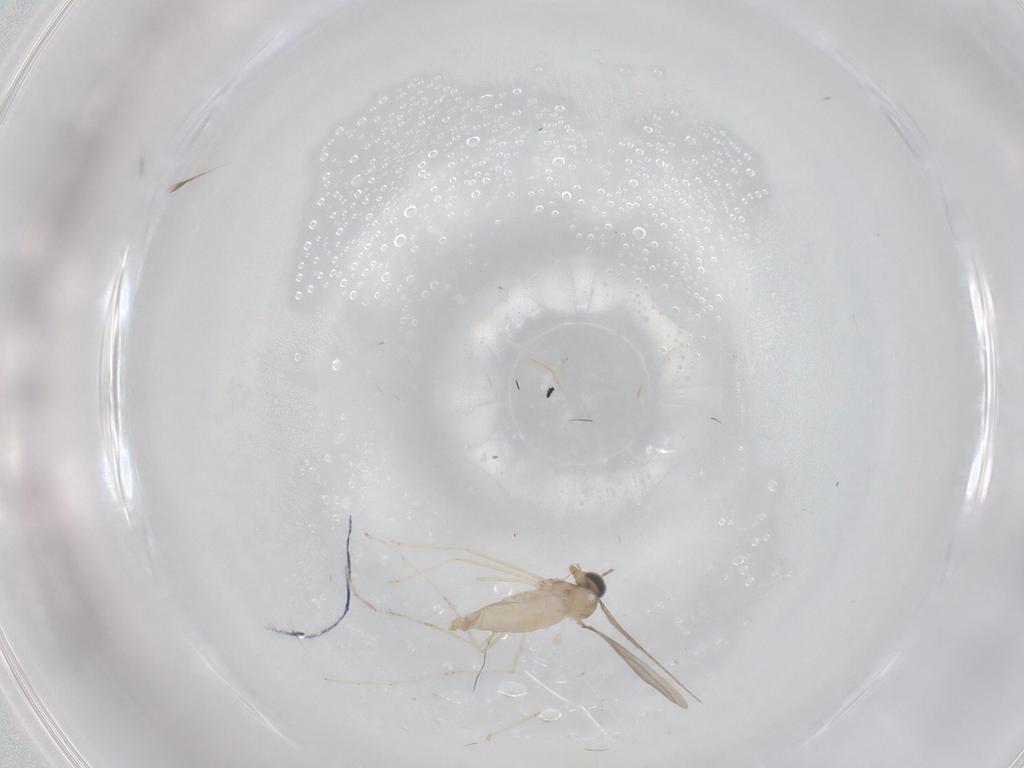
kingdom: Animalia
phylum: Arthropoda
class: Insecta
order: Diptera
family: Cecidomyiidae
